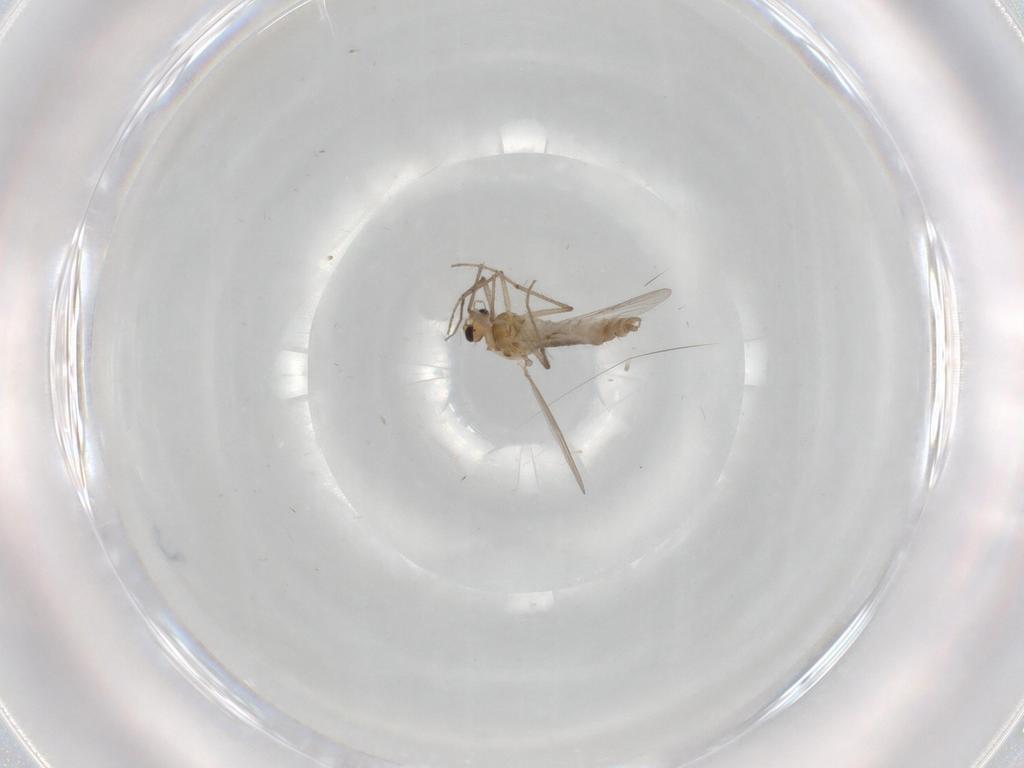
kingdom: Animalia
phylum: Arthropoda
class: Insecta
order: Diptera
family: Chironomidae
